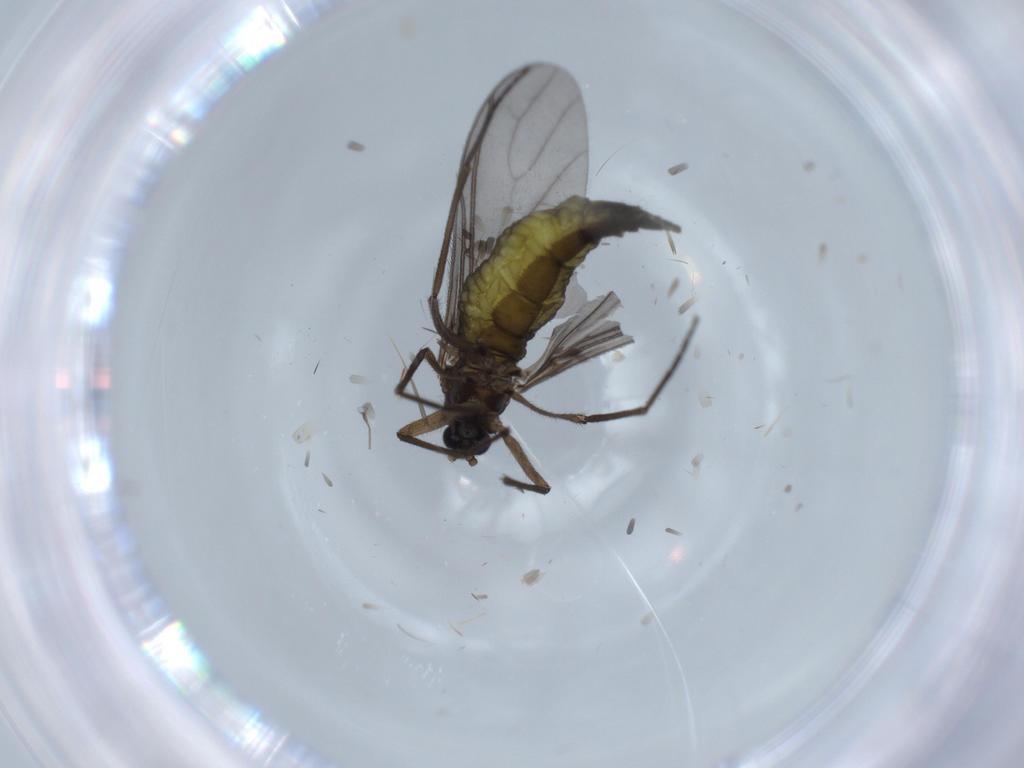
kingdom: Animalia
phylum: Arthropoda
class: Insecta
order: Diptera
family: Sciaridae
